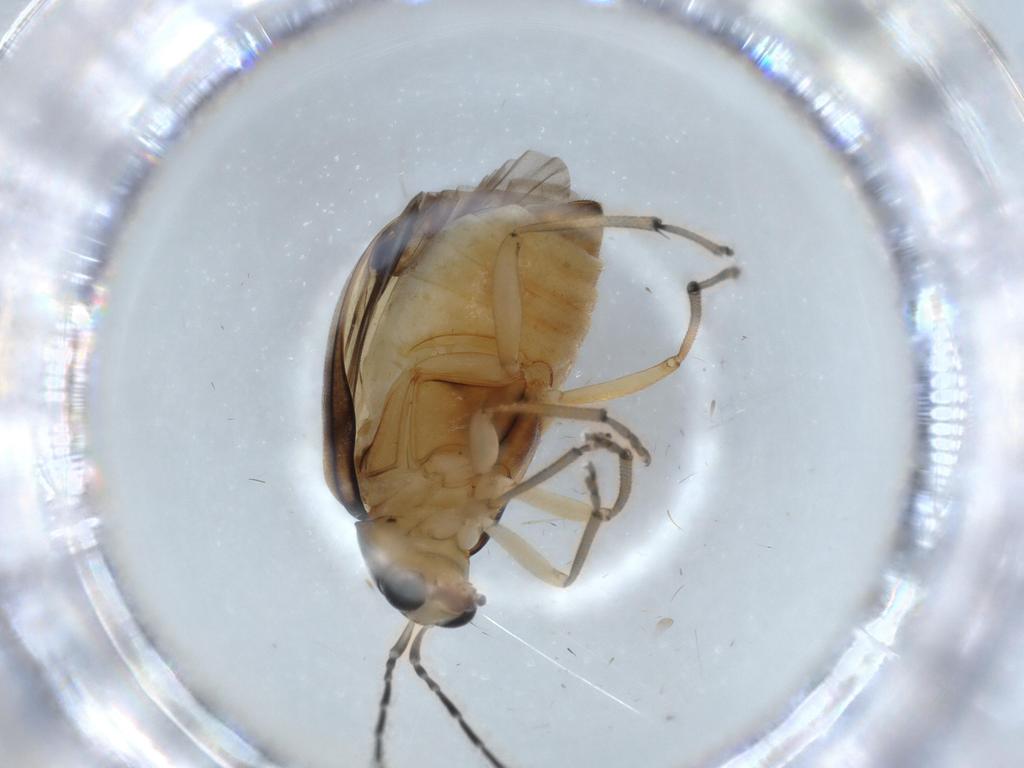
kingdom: Animalia
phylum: Arthropoda
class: Insecta
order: Coleoptera
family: Chrysomelidae
